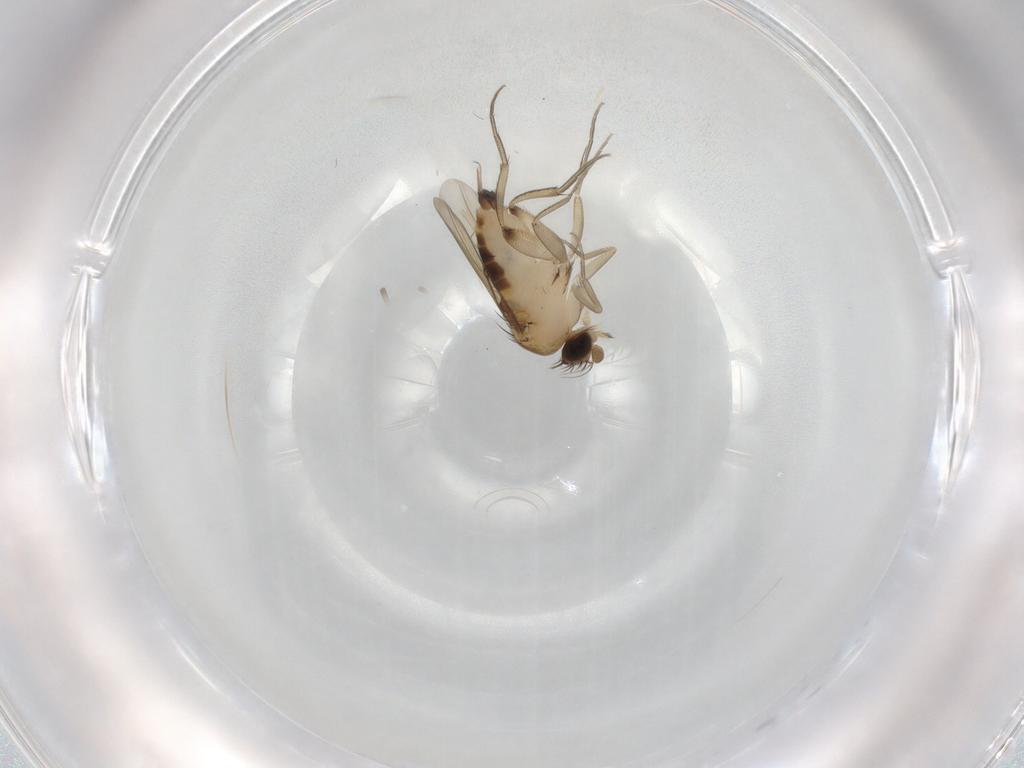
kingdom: Animalia
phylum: Arthropoda
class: Insecta
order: Diptera
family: Phoridae
